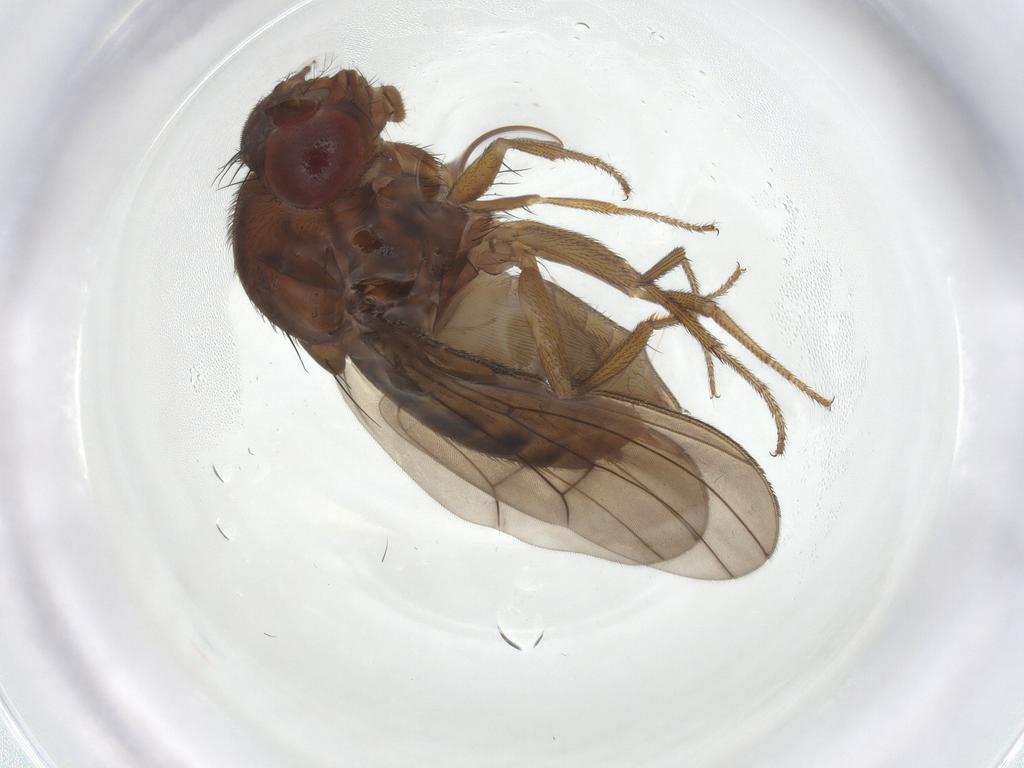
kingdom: Animalia
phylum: Arthropoda
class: Insecta
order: Diptera
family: Drosophilidae
